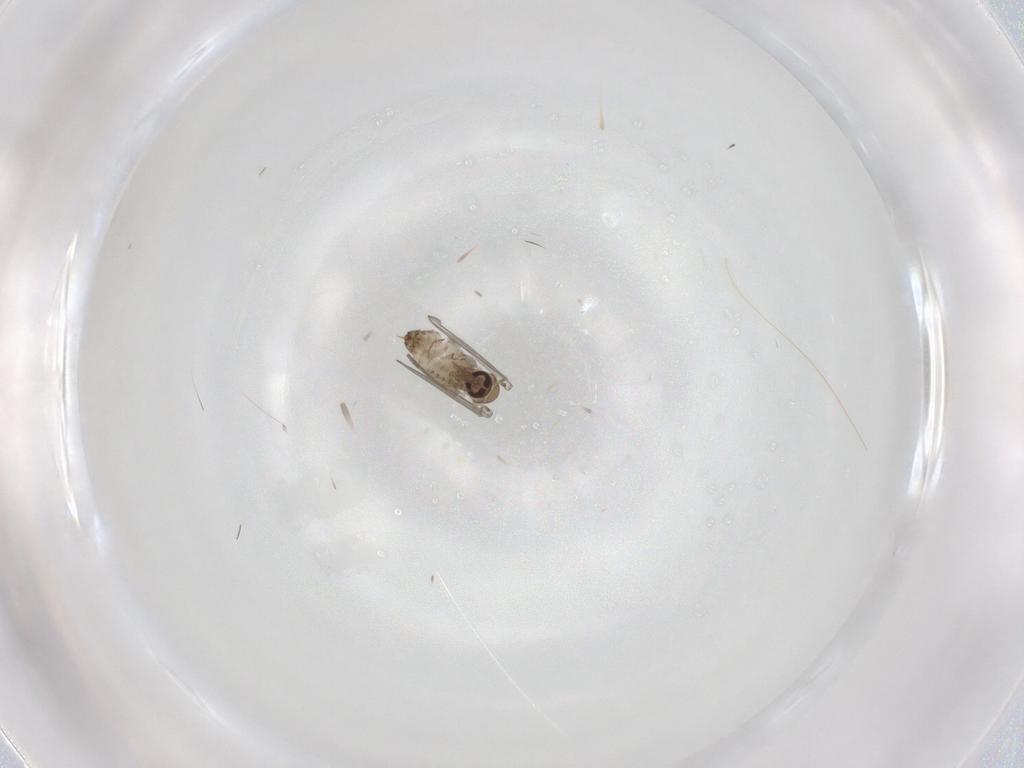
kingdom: Animalia
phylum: Arthropoda
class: Insecta
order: Diptera
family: Psychodidae
